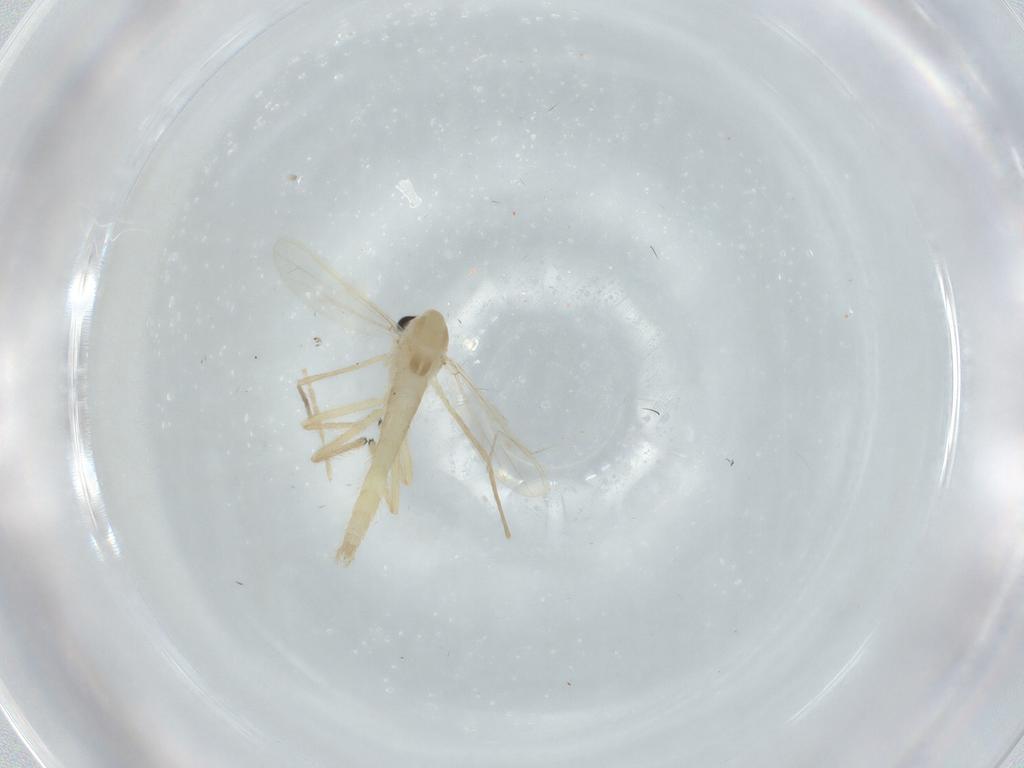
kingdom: Animalia
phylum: Arthropoda
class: Insecta
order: Diptera
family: Chironomidae
